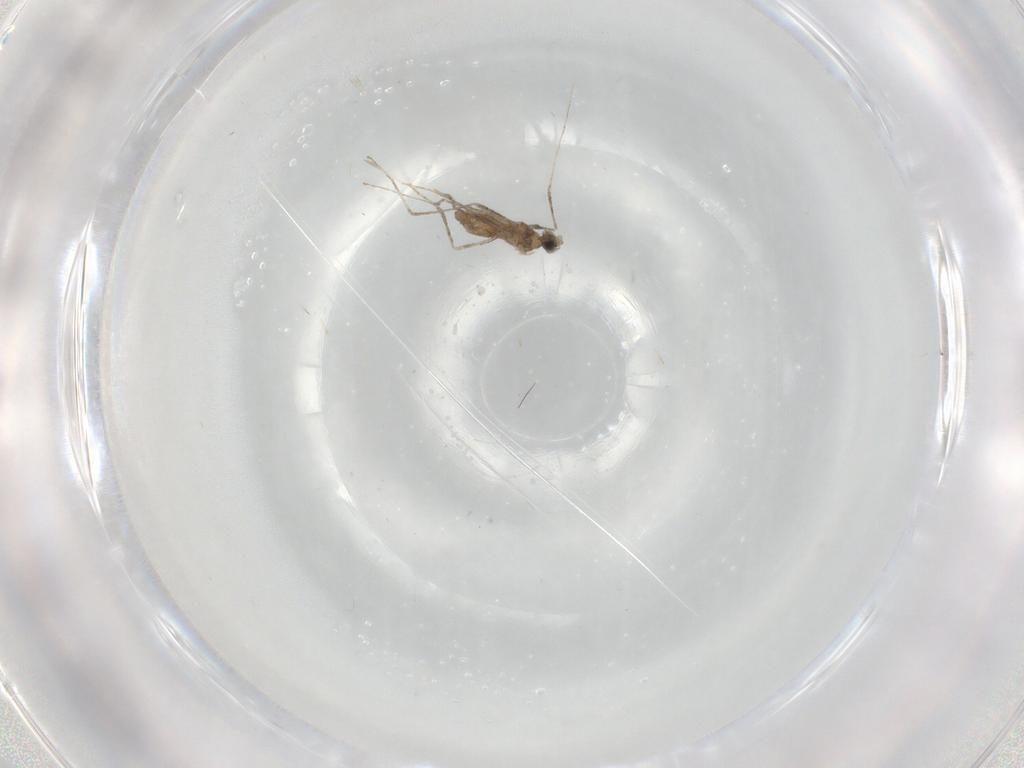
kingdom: Animalia
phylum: Arthropoda
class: Insecta
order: Diptera
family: Cecidomyiidae
